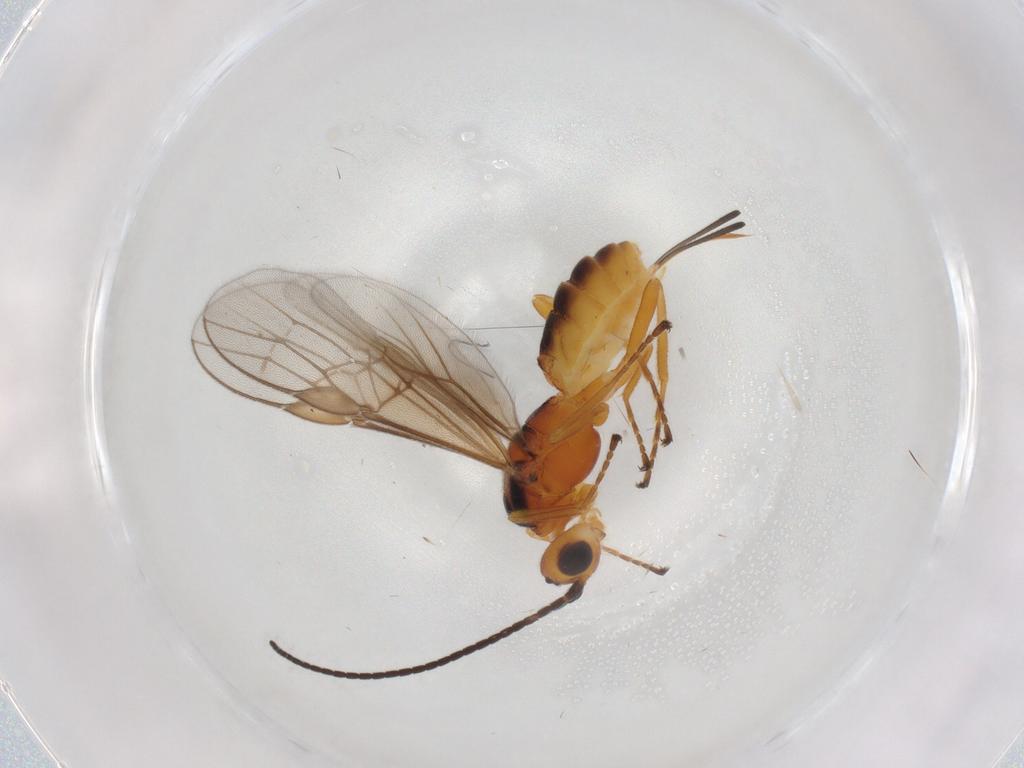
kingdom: Animalia
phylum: Arthropoda
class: Insecta
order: Hymenoptera
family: Braconidae
